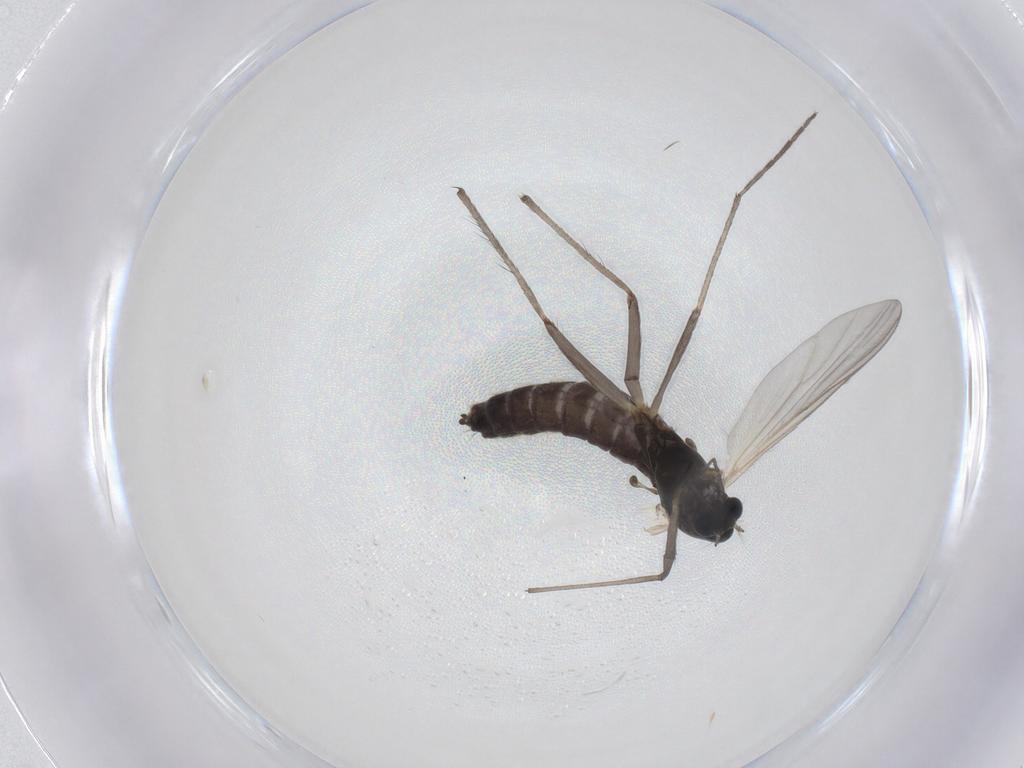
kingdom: Animalia
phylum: Arthropoda
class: Insecta
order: Diptera
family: Chironomidae
